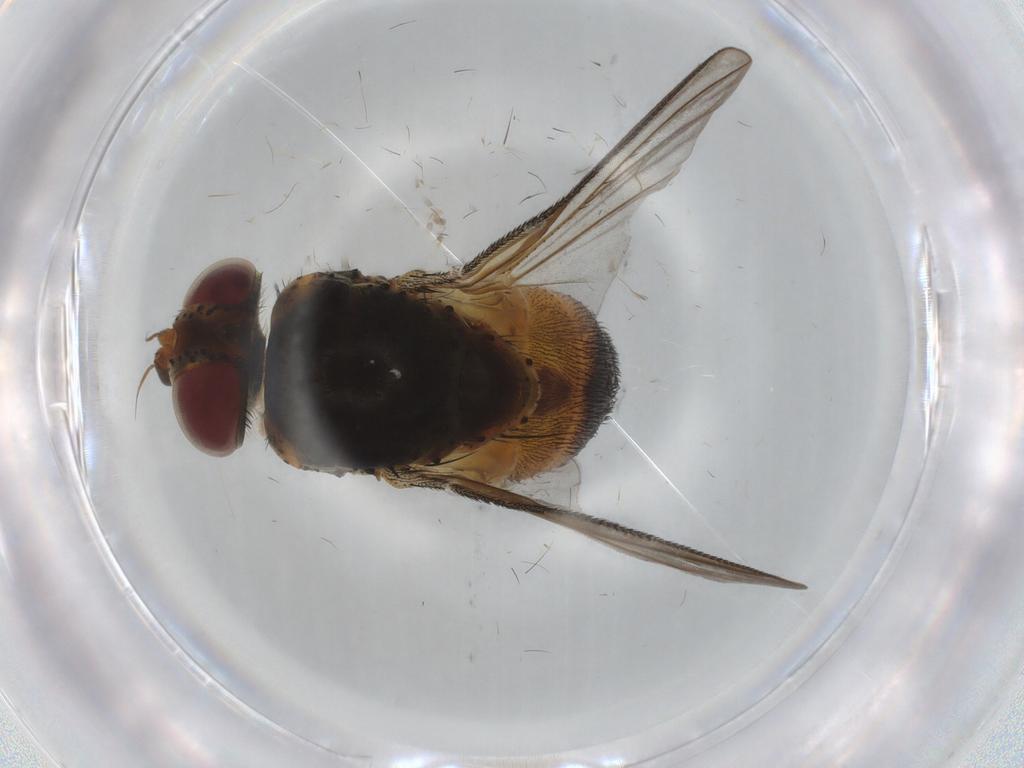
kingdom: Animalia
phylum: Arthropoda
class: Insecta
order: Diptera
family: Tachinidae
